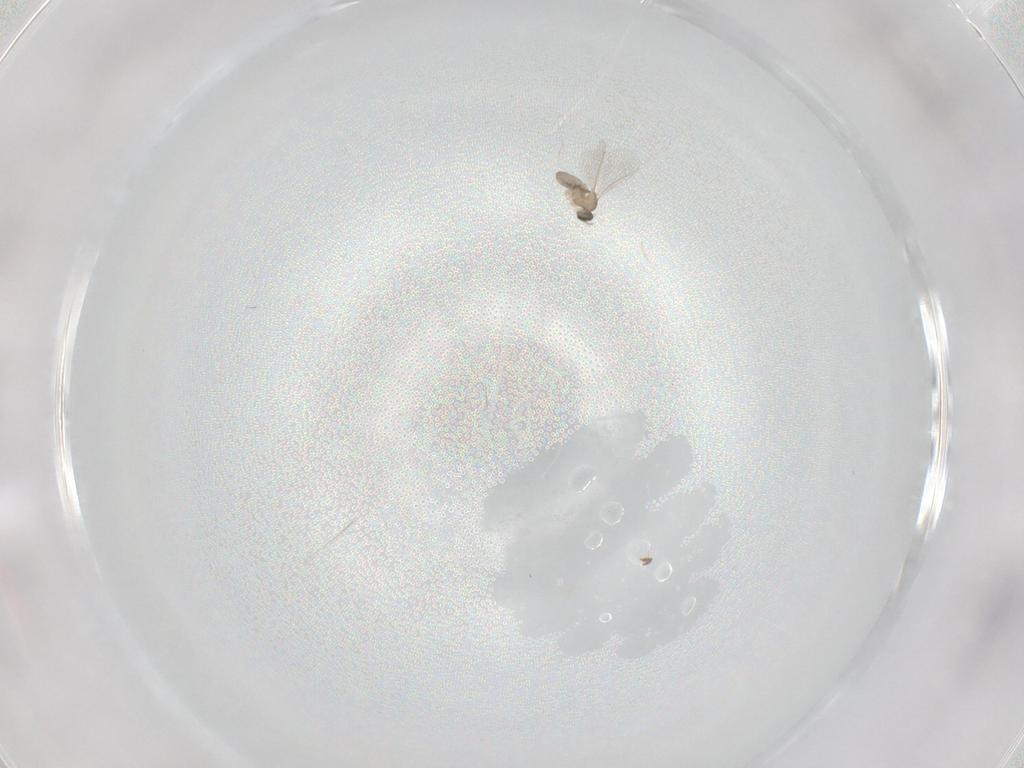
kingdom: Animalia
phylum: Arthropoda
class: Insecta
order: Diptera
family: Cecidomyiidae
